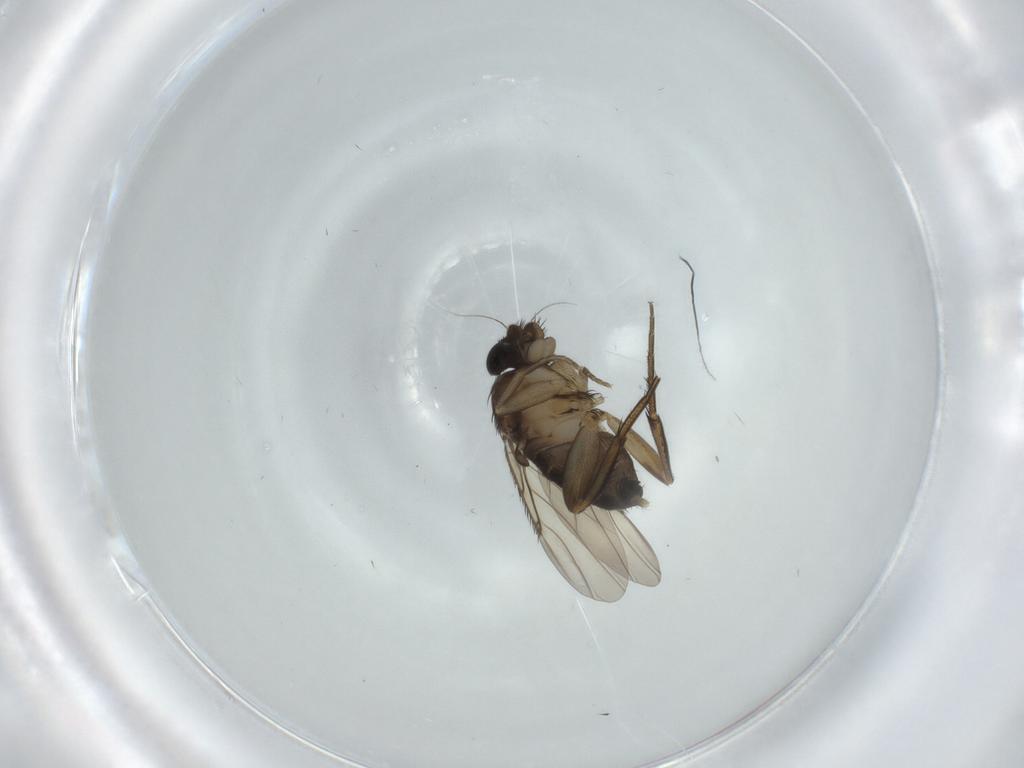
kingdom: Animalia
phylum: Arthropoda
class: Insecta
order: Diptera
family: Phoridae
